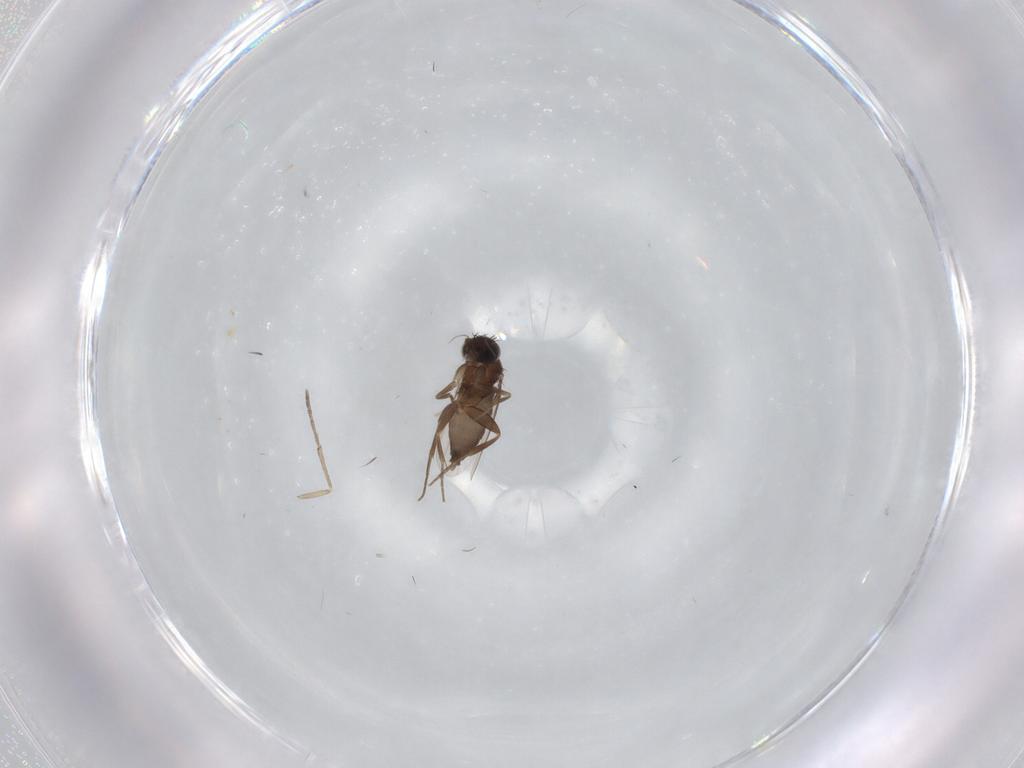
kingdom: Animalia
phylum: Arthropoda
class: Insecta
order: Diptera
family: Phoridae
